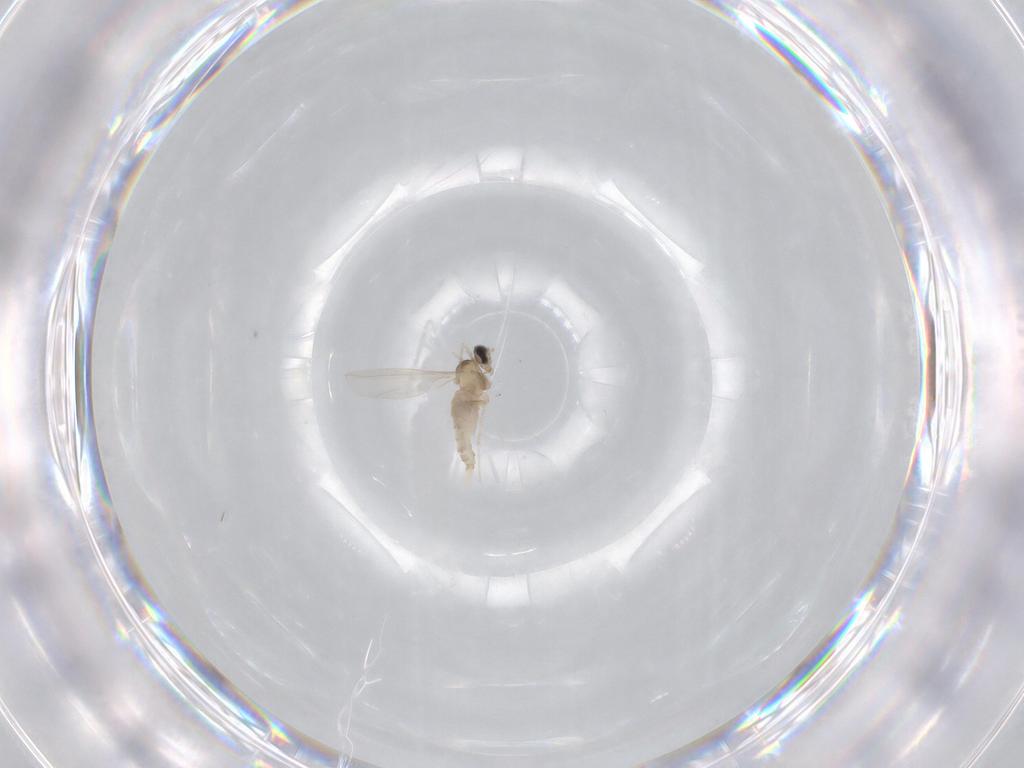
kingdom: Animalia
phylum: Arthropoda
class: Insecta
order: Diptera
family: Cecidomyiidae
